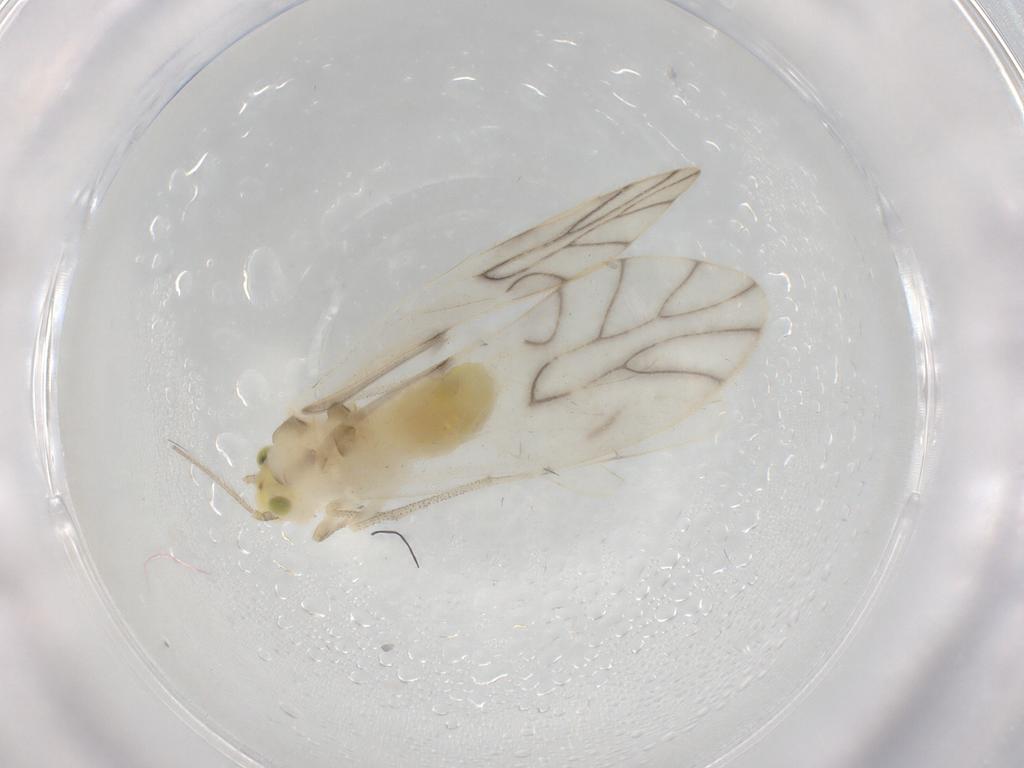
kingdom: Animalia
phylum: Arthropoda
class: Insecta
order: Psocodea
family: Caeciliusidae
